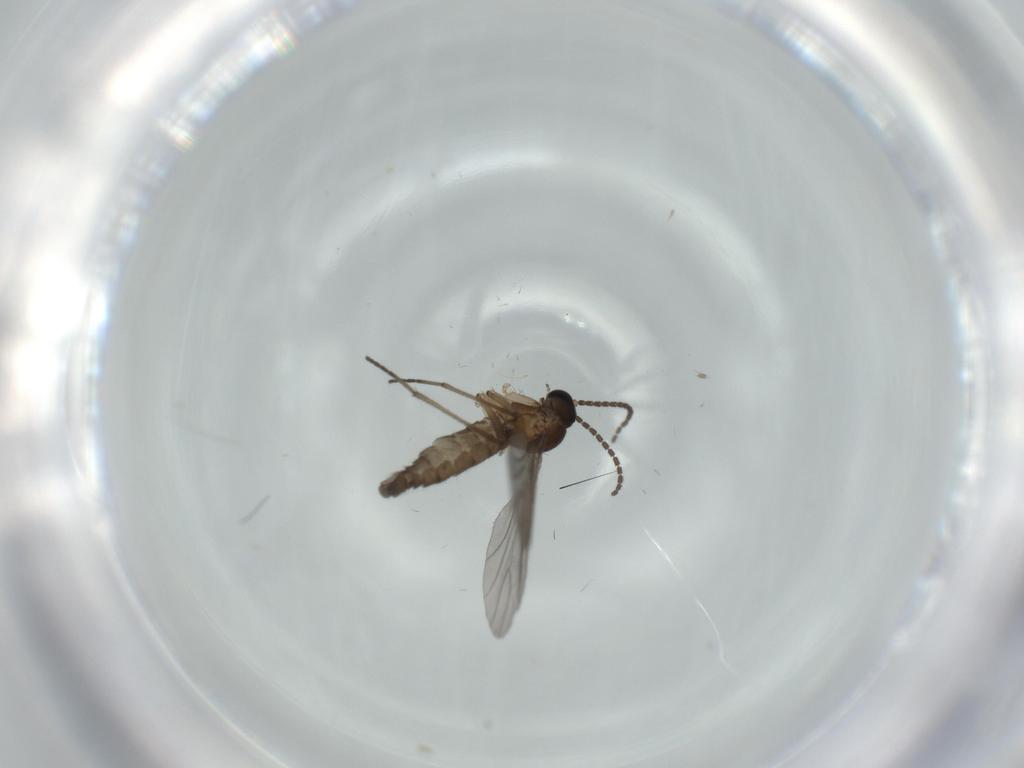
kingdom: Animalia
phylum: Arthropoda
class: Insecta
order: Diptera
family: Sciaridae
